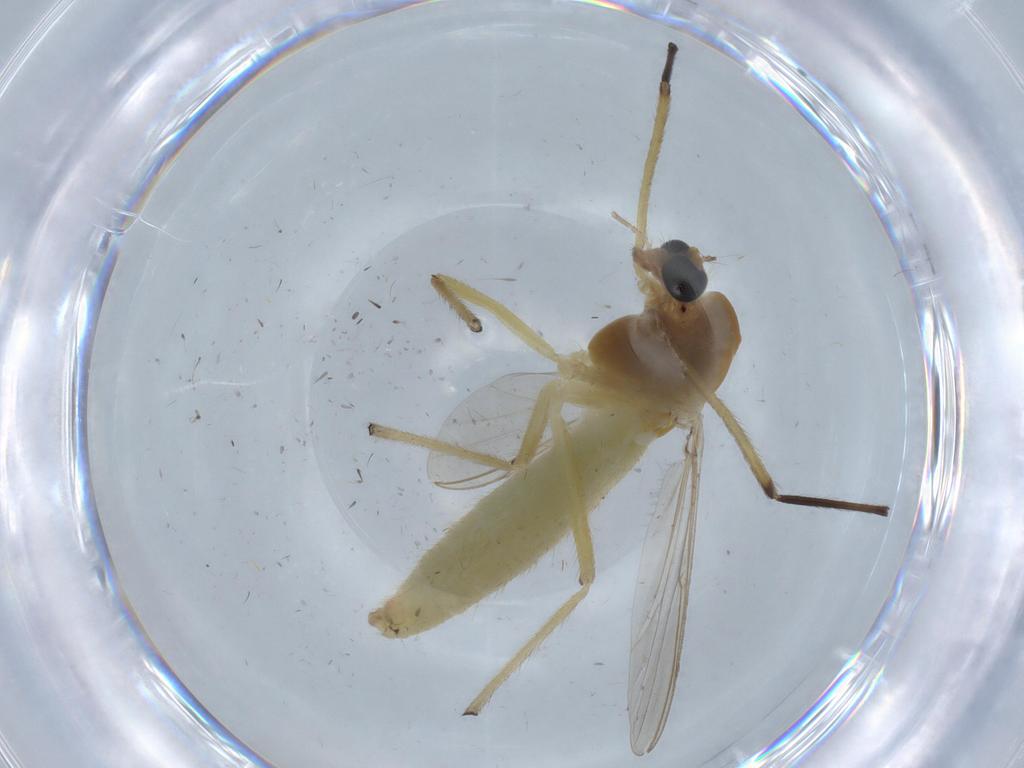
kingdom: Animalia
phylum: Arthropoda
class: Insecta
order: Diptera
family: Chironomidae
